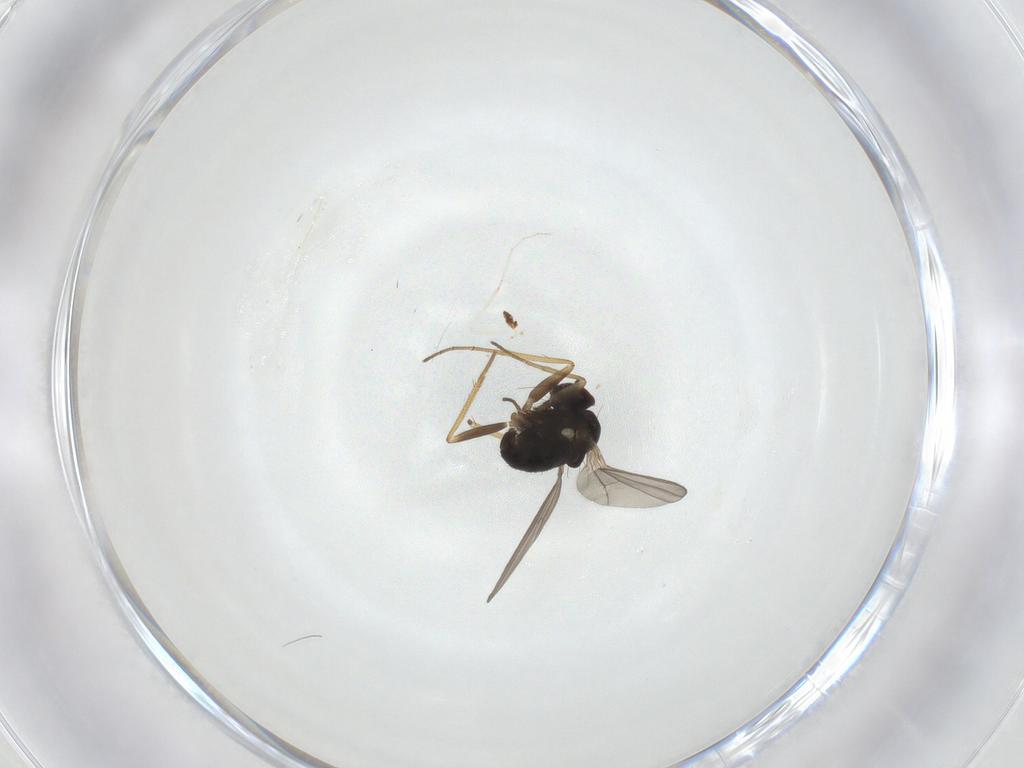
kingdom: Animalia
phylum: Arthropoda
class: Insecta
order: Diptera
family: Dolichopodidae
